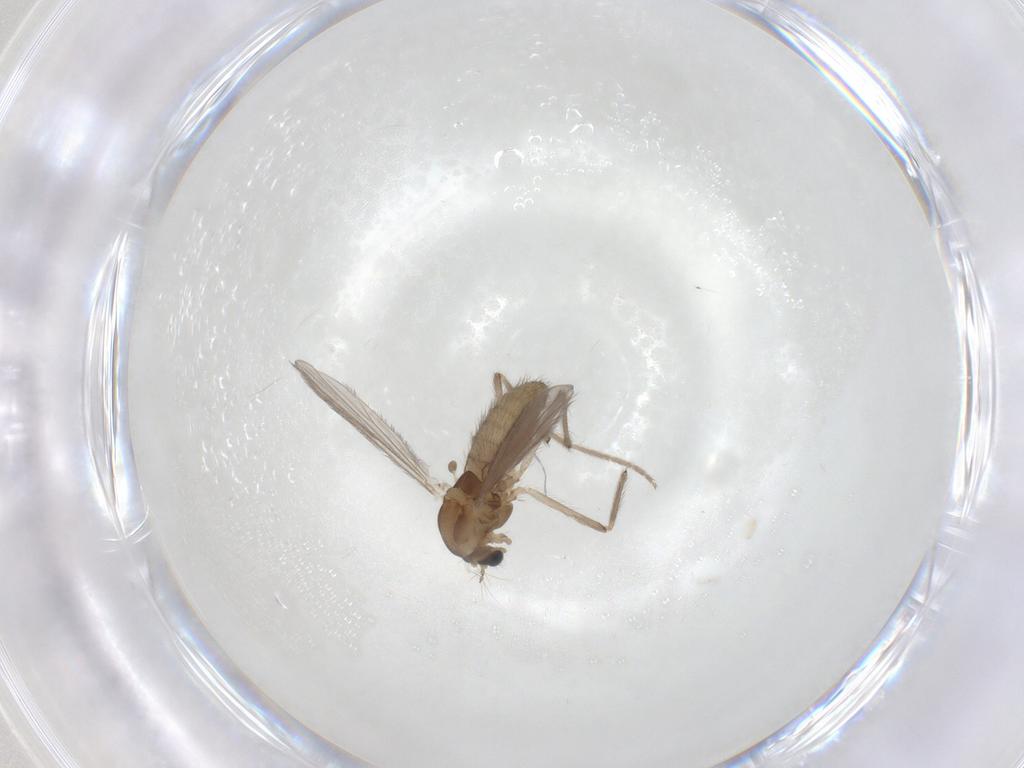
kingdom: Animalia
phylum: Arthropoda
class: Insecta
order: Diptera
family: Chironomidae
